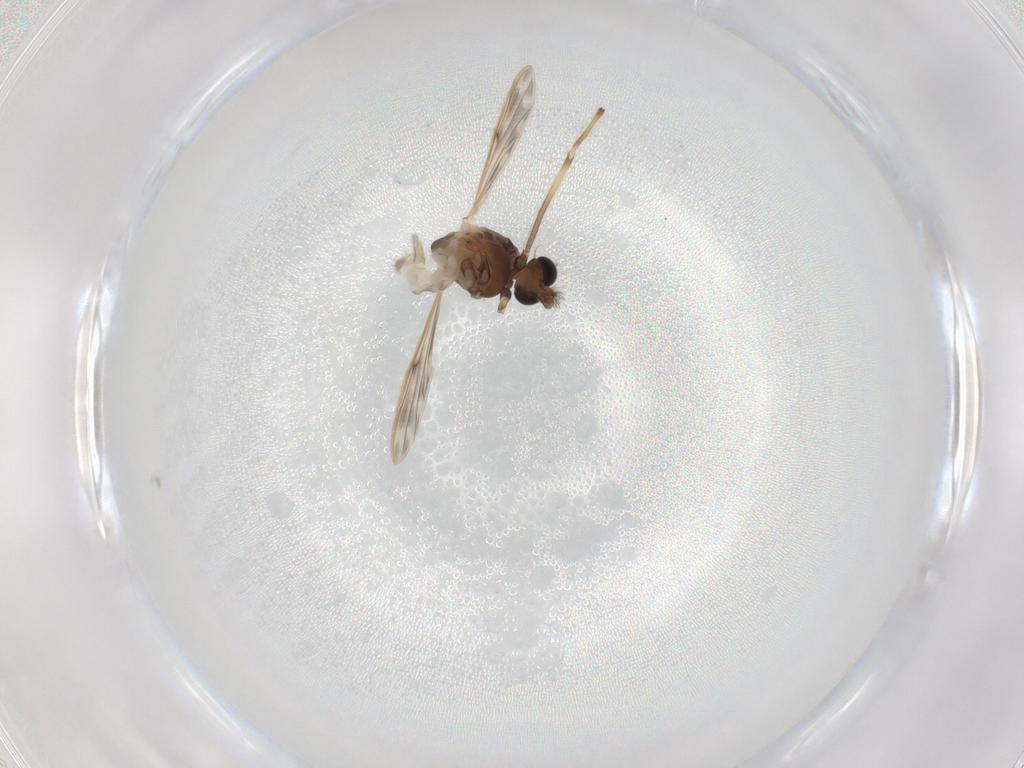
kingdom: Animalia
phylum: Arthropoda
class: Insecta
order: Diptera
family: Chironomidae
